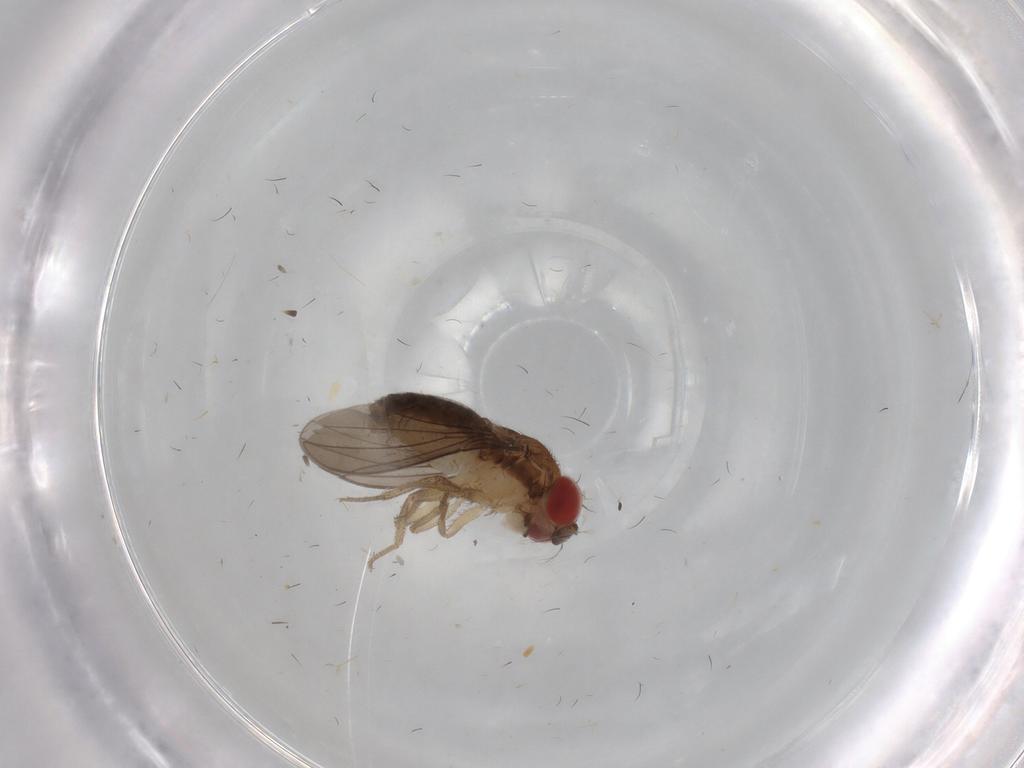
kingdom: Animalia
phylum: Arthropoda
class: Insecta
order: Diptera
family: Drosophilidae
